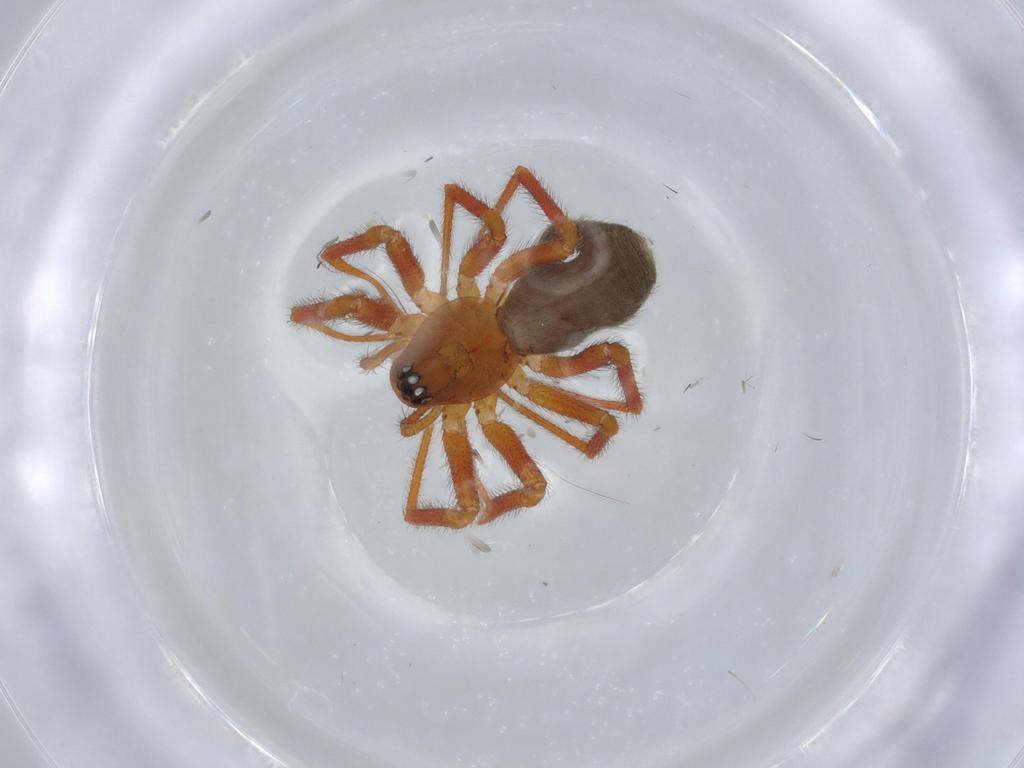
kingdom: Animalia
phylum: Arthropoda
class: Arachnida
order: Araneae
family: Linyphiidae
